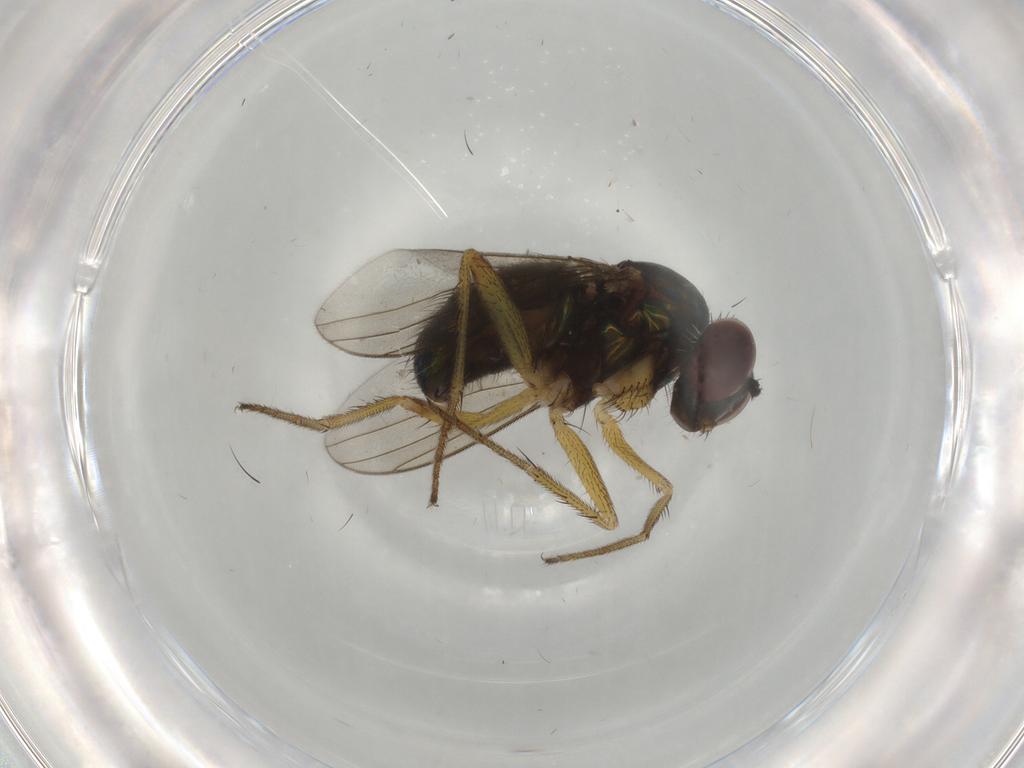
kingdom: Animalia
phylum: Arthropoda
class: Insecta
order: Diptera
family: Dolichopodidae
